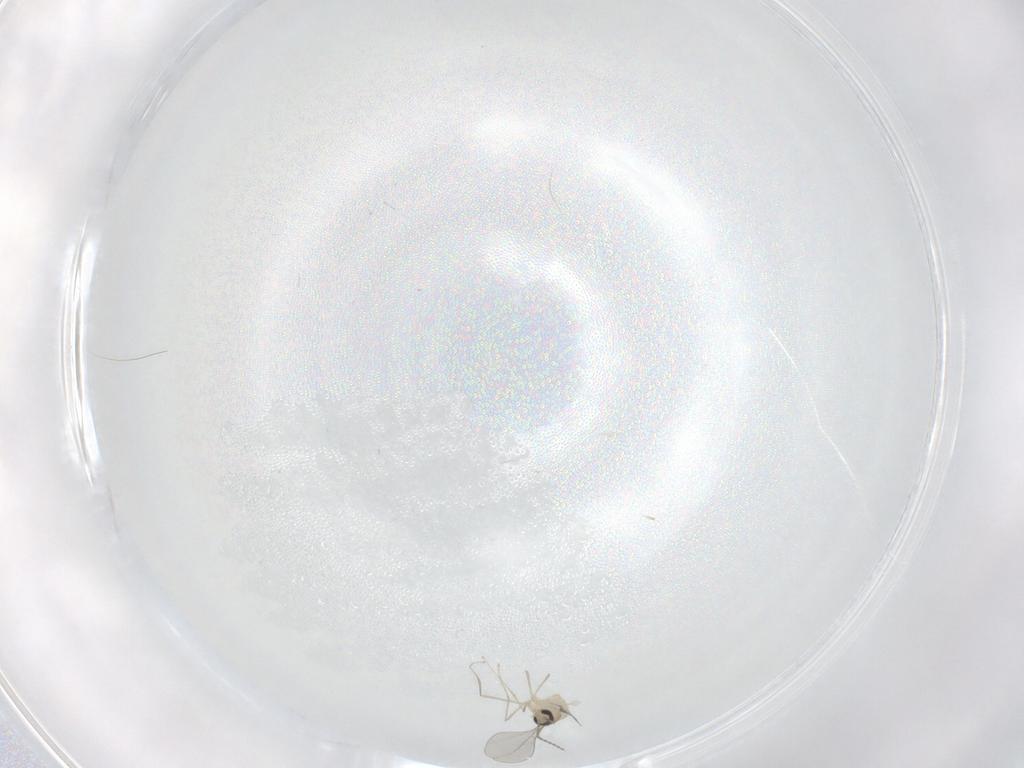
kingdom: Animalia
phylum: Arthropoda
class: Insecta
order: Diptera
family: Cecidomyiidae
